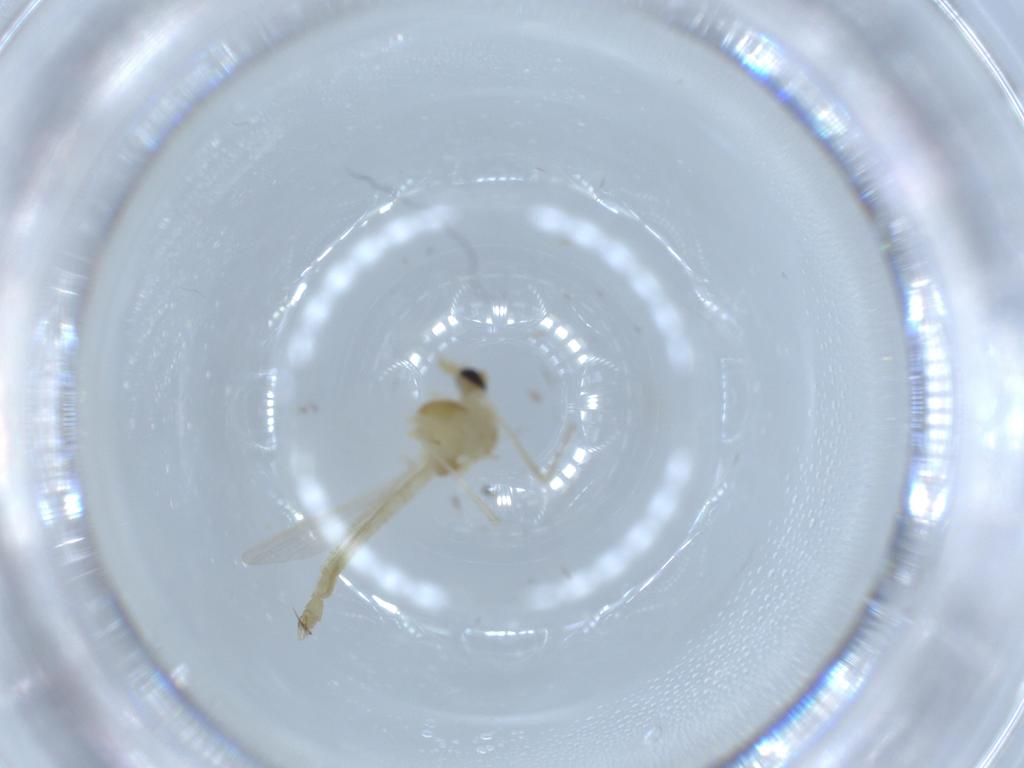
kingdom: Animalia
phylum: Arthropoda
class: Insecta
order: Diptera
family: Chironomidae
